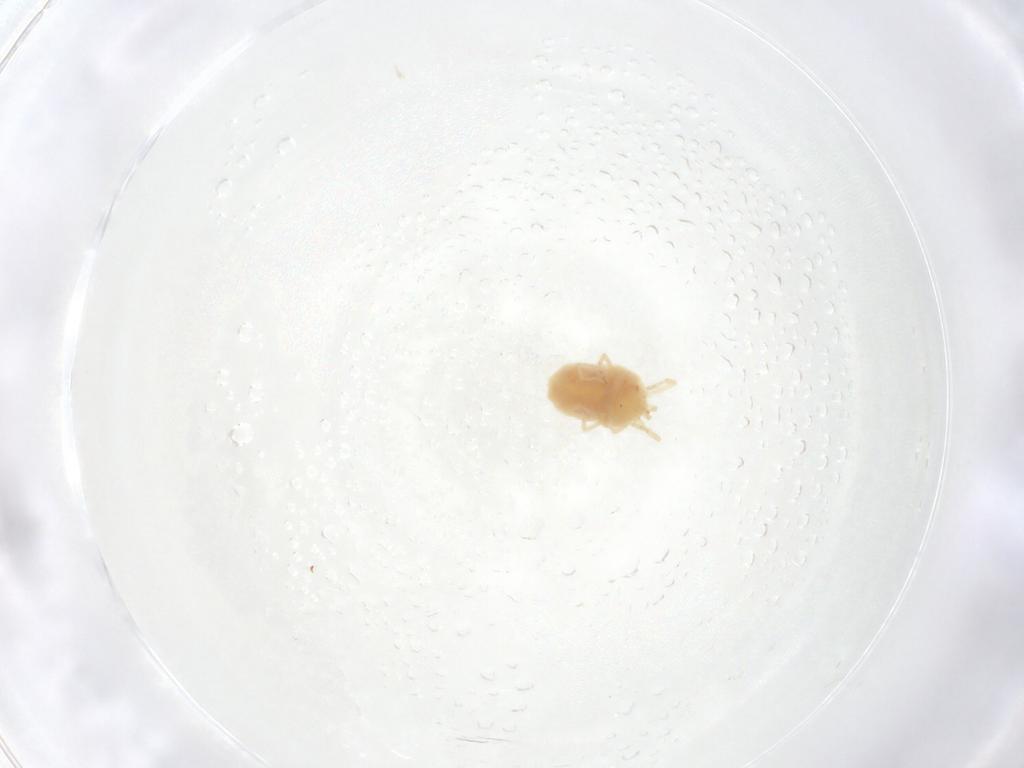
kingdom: Animalia
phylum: Arthropoda
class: Arachnida
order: Trombidiformes
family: Erythraeidae
